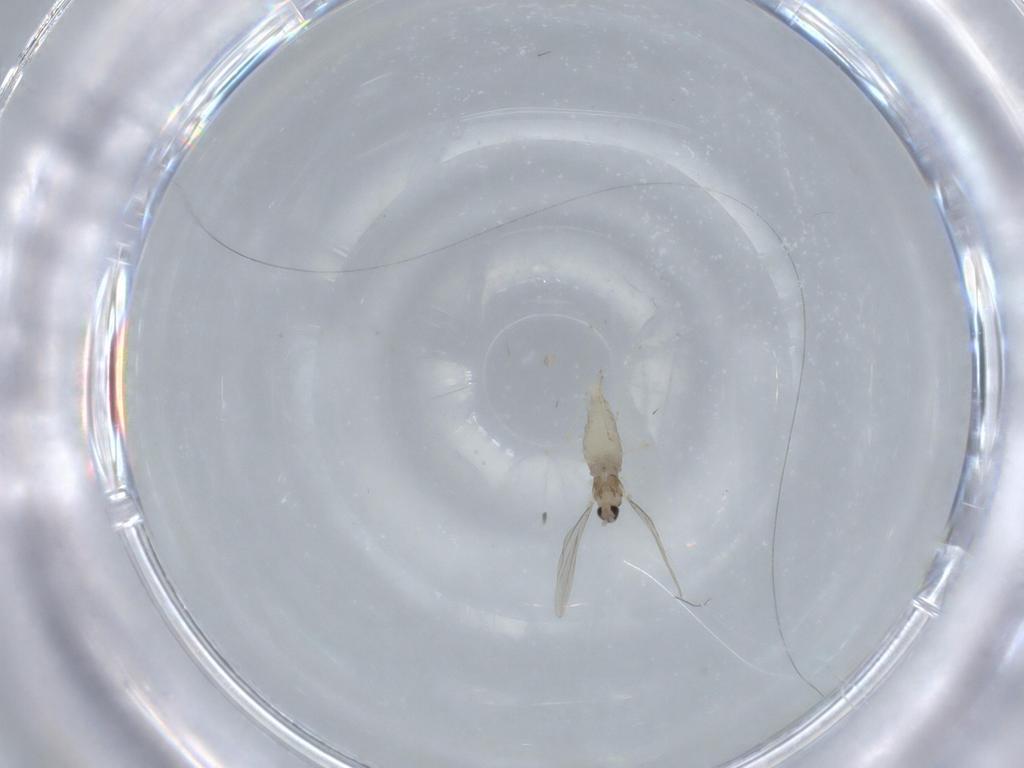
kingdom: Animalia
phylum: Arthropoda
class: Insecta
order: Diptera
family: Cecidomyiidae
